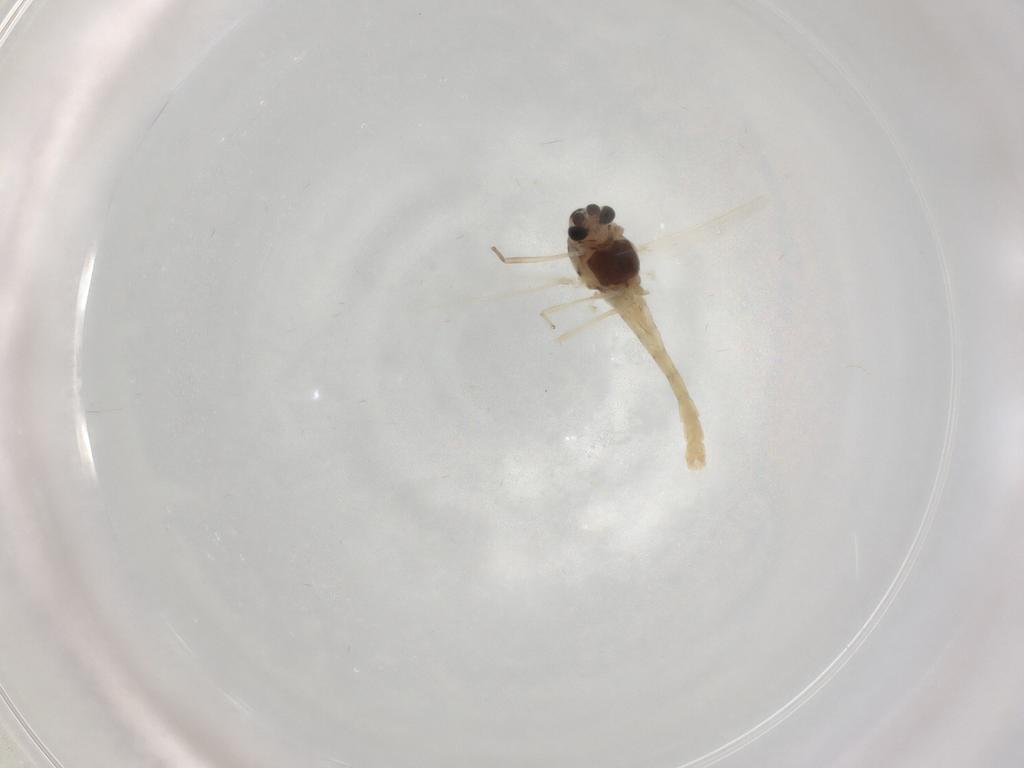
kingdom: Animalia
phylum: Arthropoda
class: Insecta
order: Diptera
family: Chironomidae
